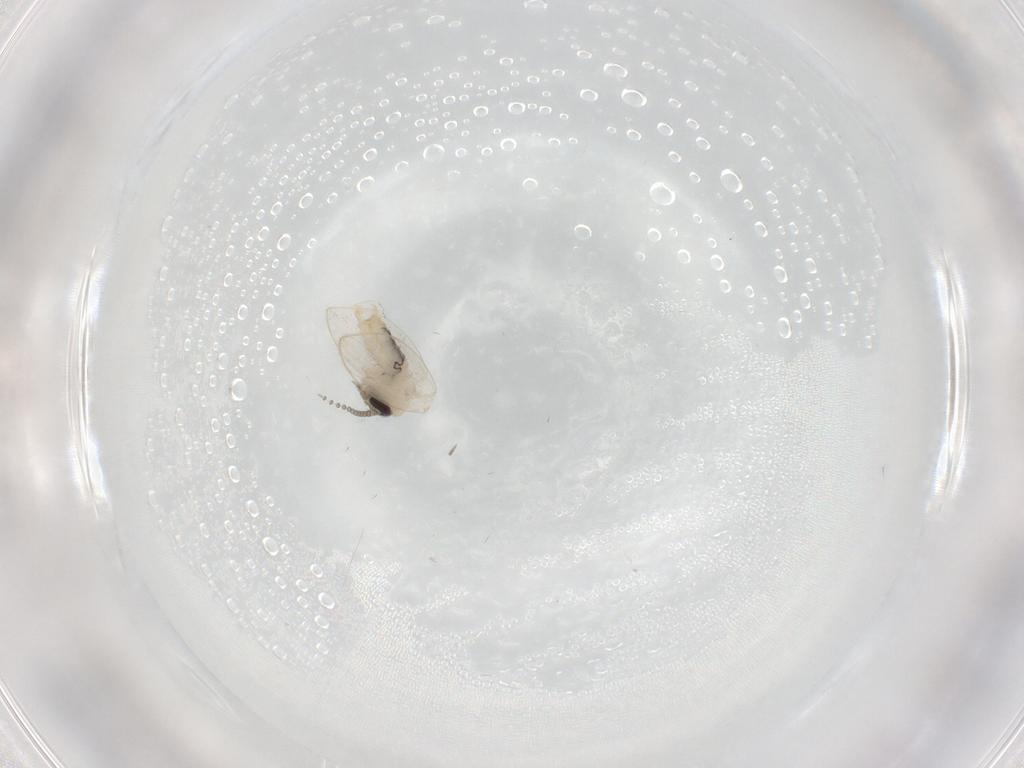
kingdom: Animalia
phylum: Arthropoda
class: Insecta
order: Diptera
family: Psychodidae
